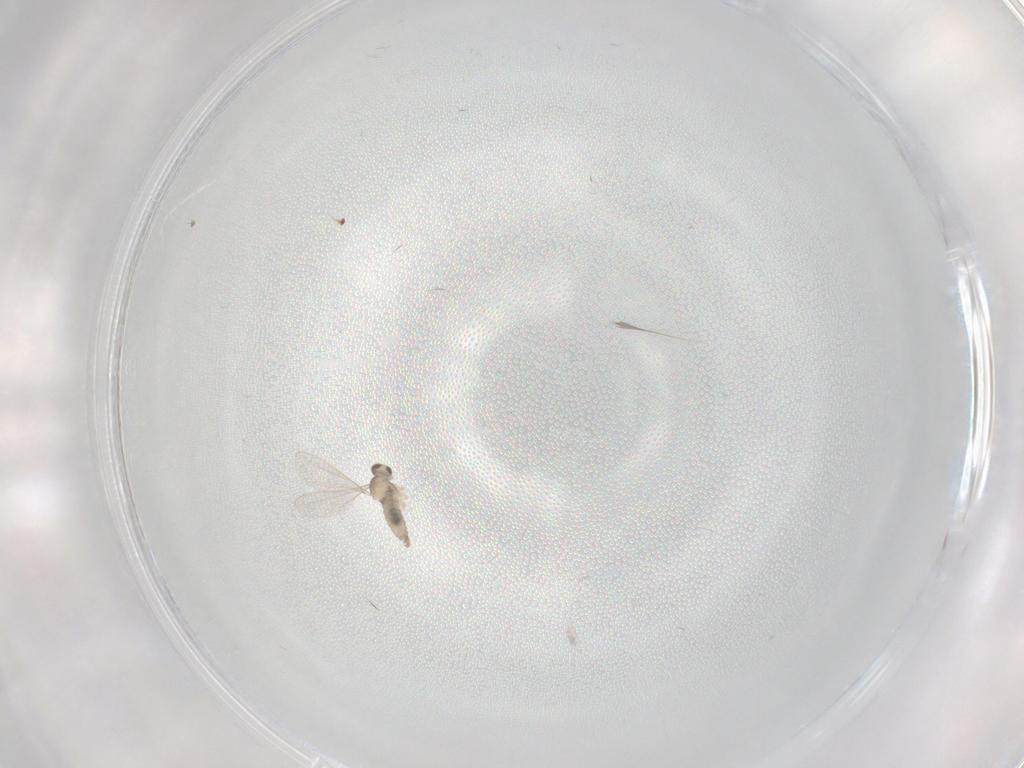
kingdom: Animalia
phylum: Arthropoda
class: Insecta
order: Diptera
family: Cecidomyiidae
